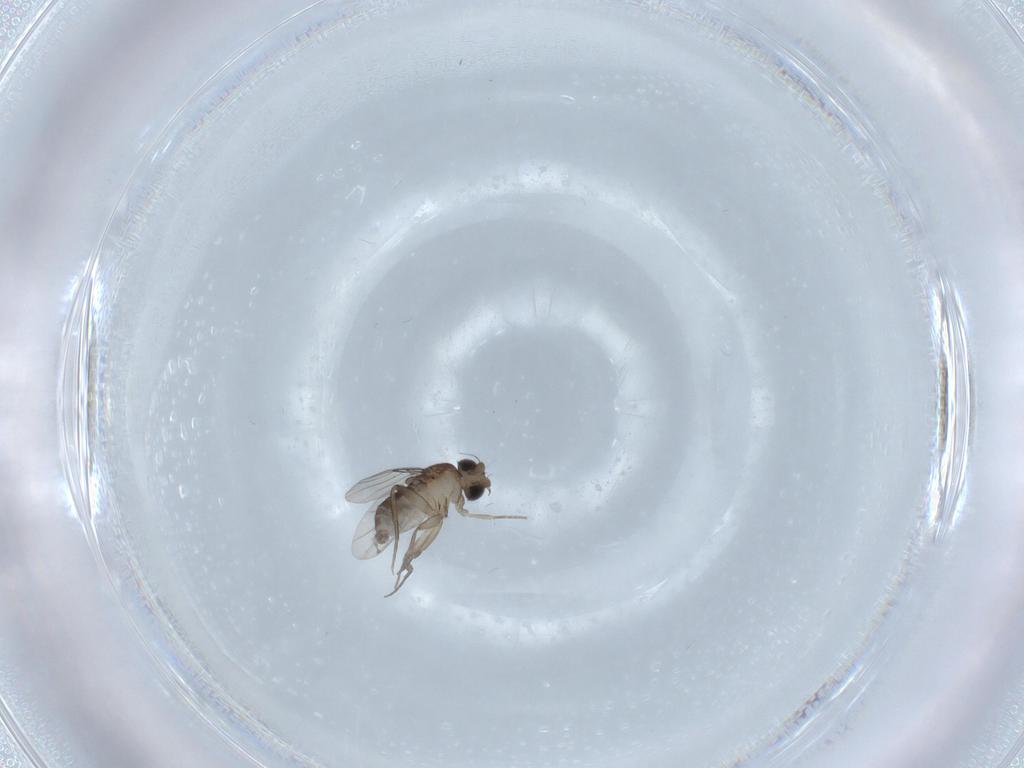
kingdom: Animalia
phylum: Arthropoda
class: Insecta
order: Diptera
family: Phoridae
